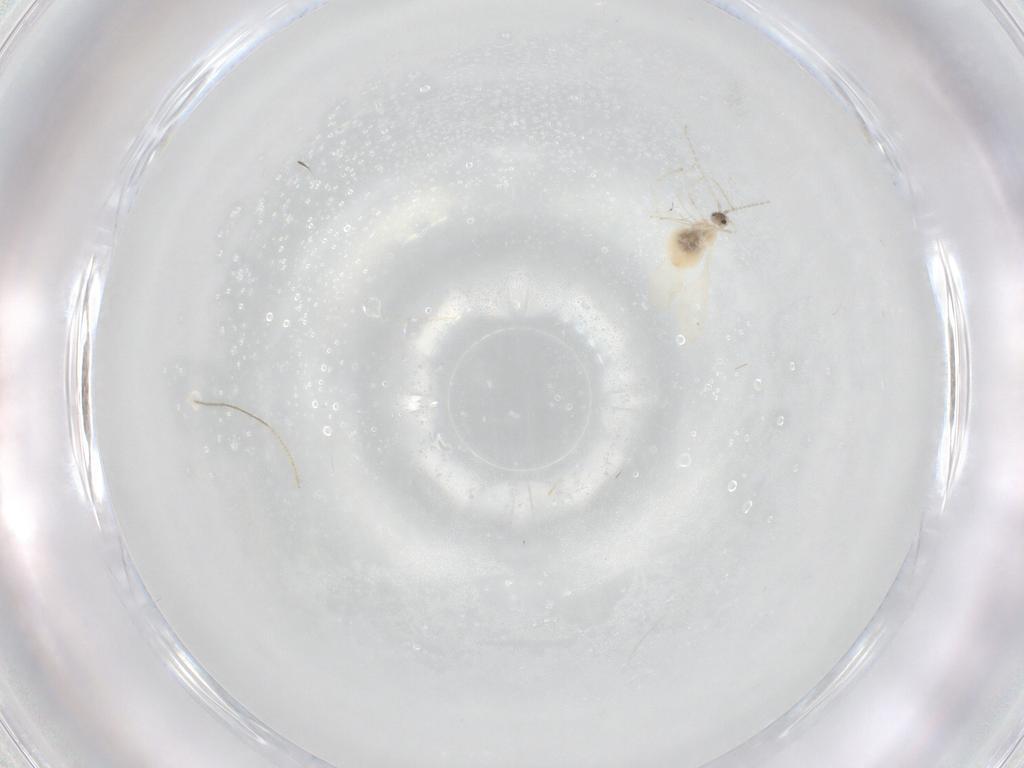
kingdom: Animalia
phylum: Arthropoda
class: Insecta
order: Diptera
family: Cecidomyiidae
